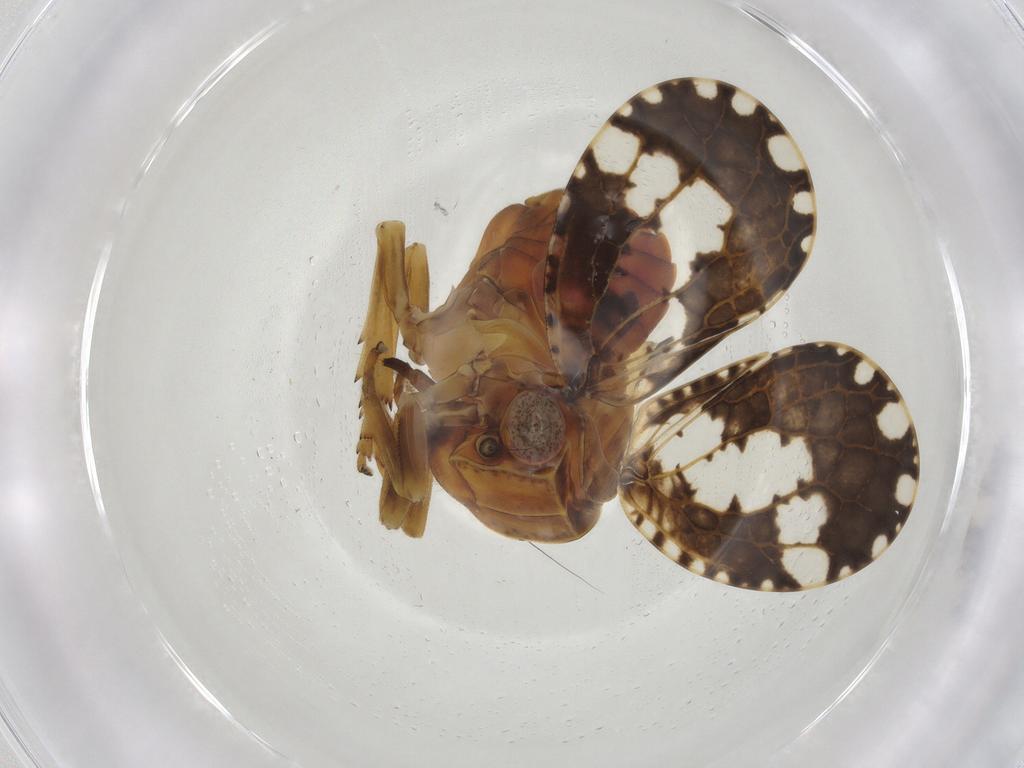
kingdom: Animalia
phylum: Arthropoda
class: Insecta
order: Hemiptera
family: Tropiduchidae
